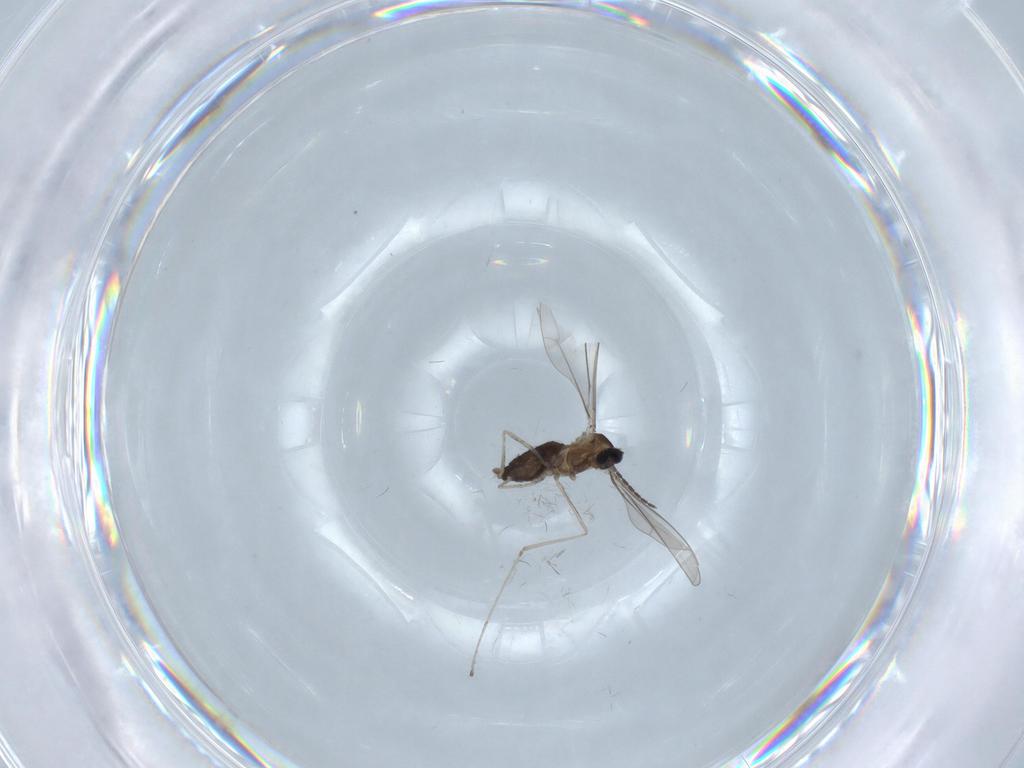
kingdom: Animalia
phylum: Arthropoda
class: Insecta
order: Diptera
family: Cecidomyiidae
